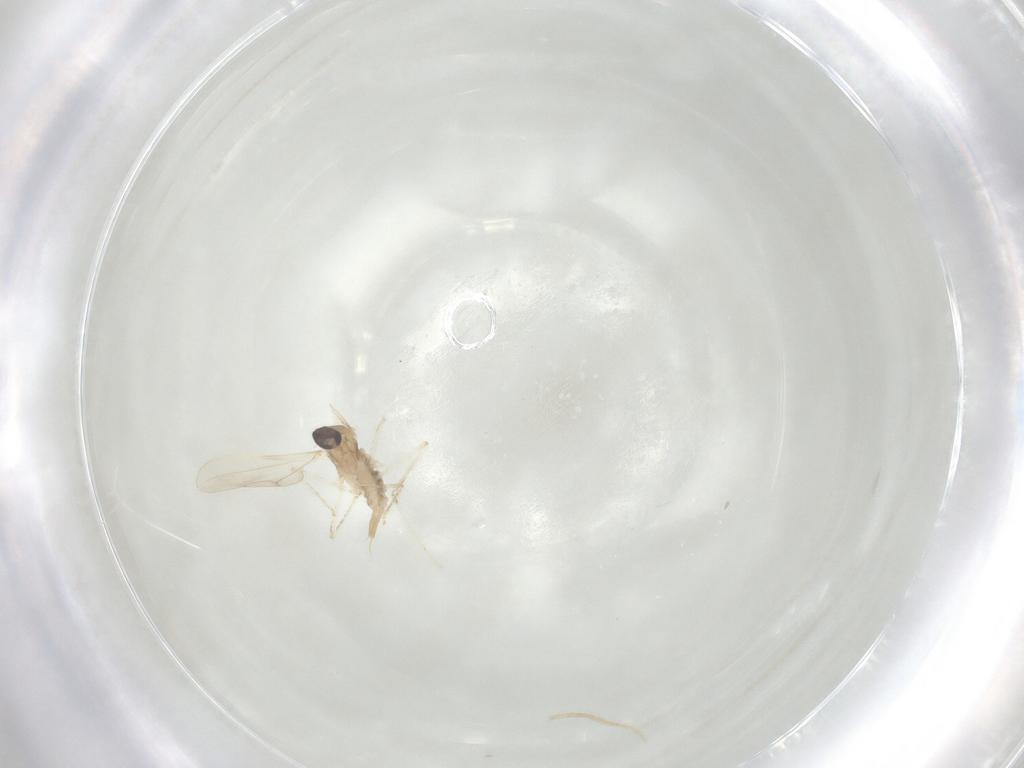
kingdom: Animalia
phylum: Arthropoda
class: Insecta
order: Diptera
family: Cecidomyiidae
